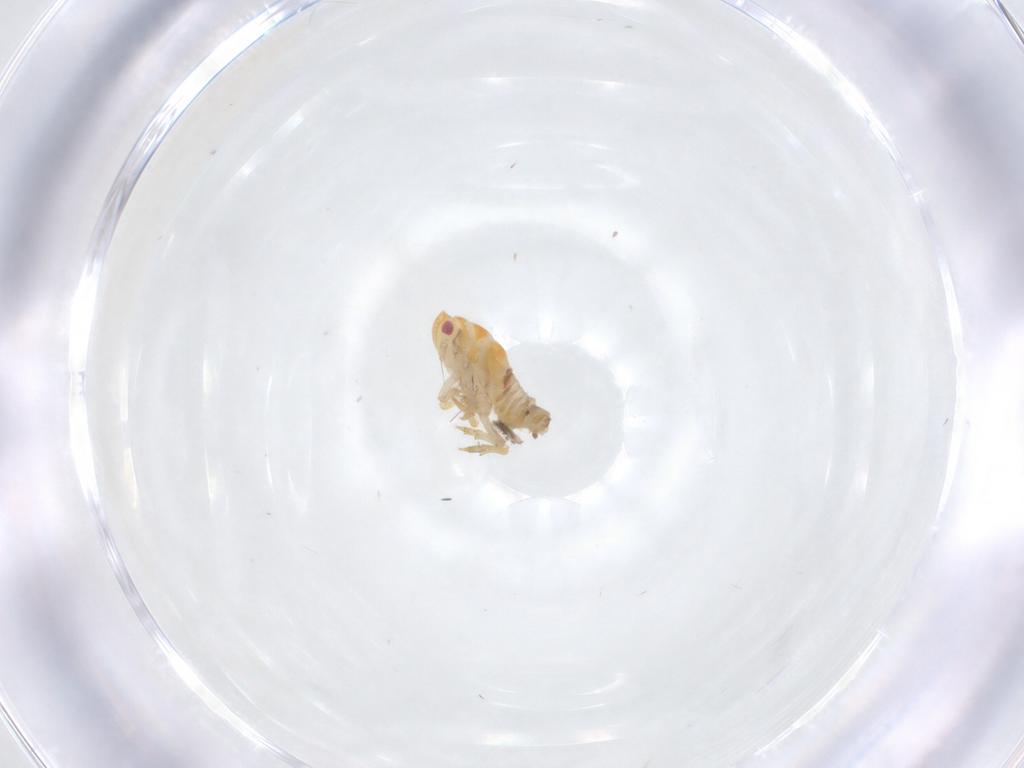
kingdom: Animalia
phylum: Arthropoda
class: Insecta
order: Hemiptera
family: Ricaniidae
